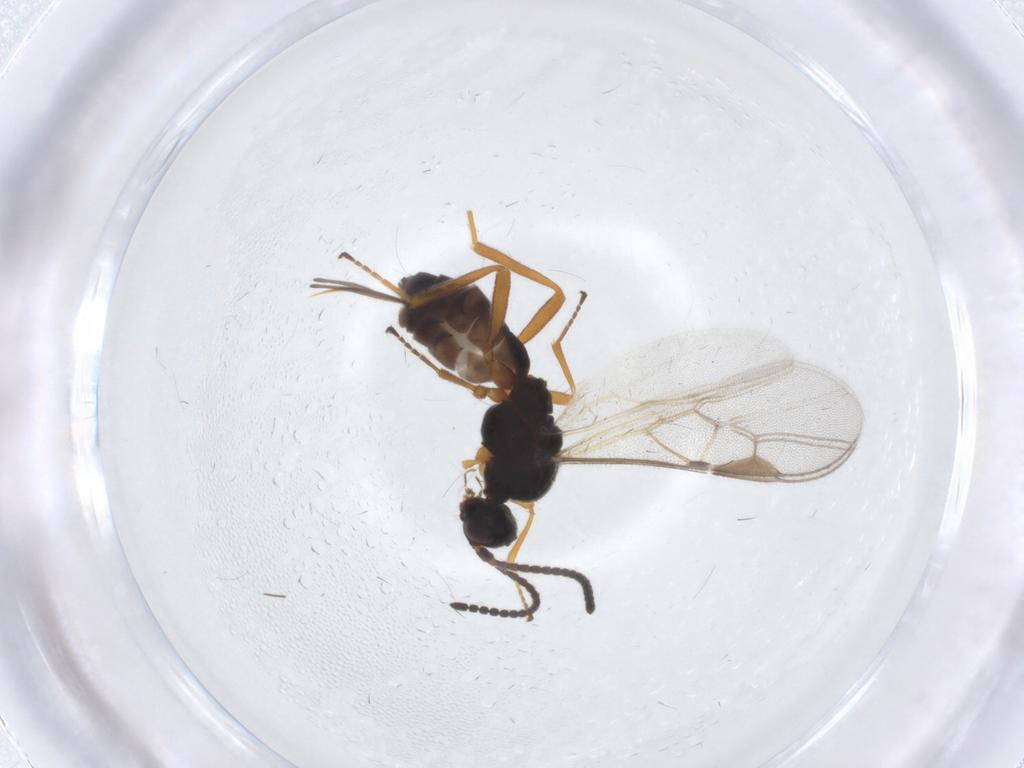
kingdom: Animalia
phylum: Arthropoda
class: Insecta
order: Hymenoptera
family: Braconidae
